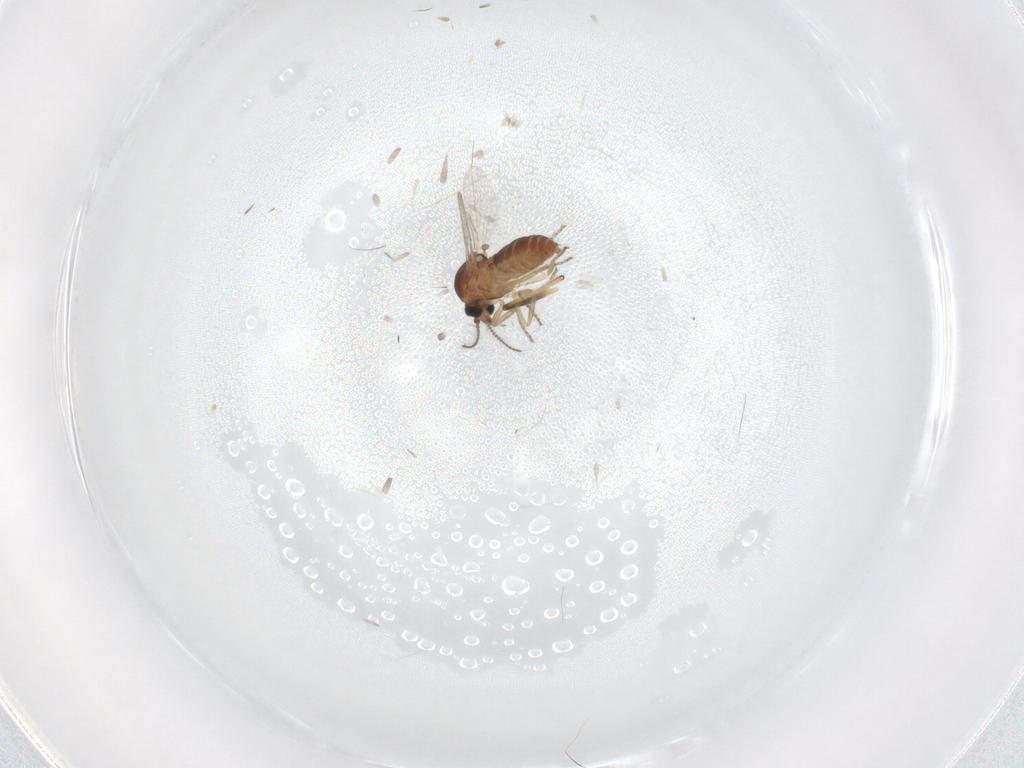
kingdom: Animalia
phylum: Arthropoda
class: Insecta
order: Diptera
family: Ceratopogonidae
